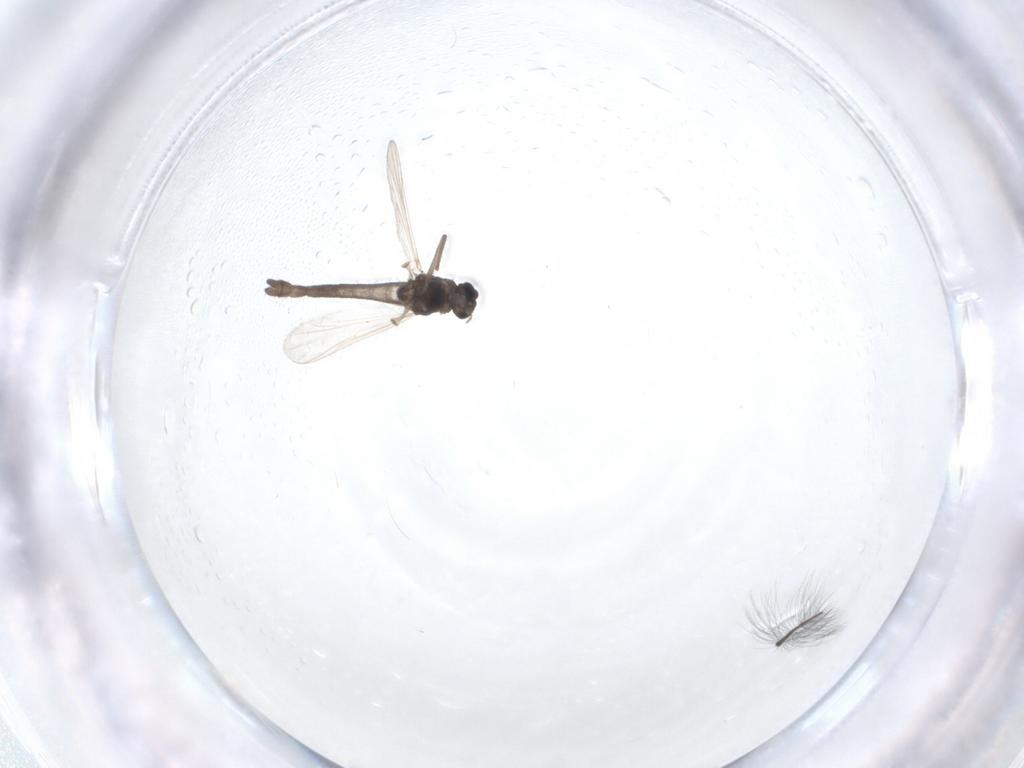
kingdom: Animalia
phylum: Arthropoda
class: Insecta
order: Diptera
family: Chironomidae
